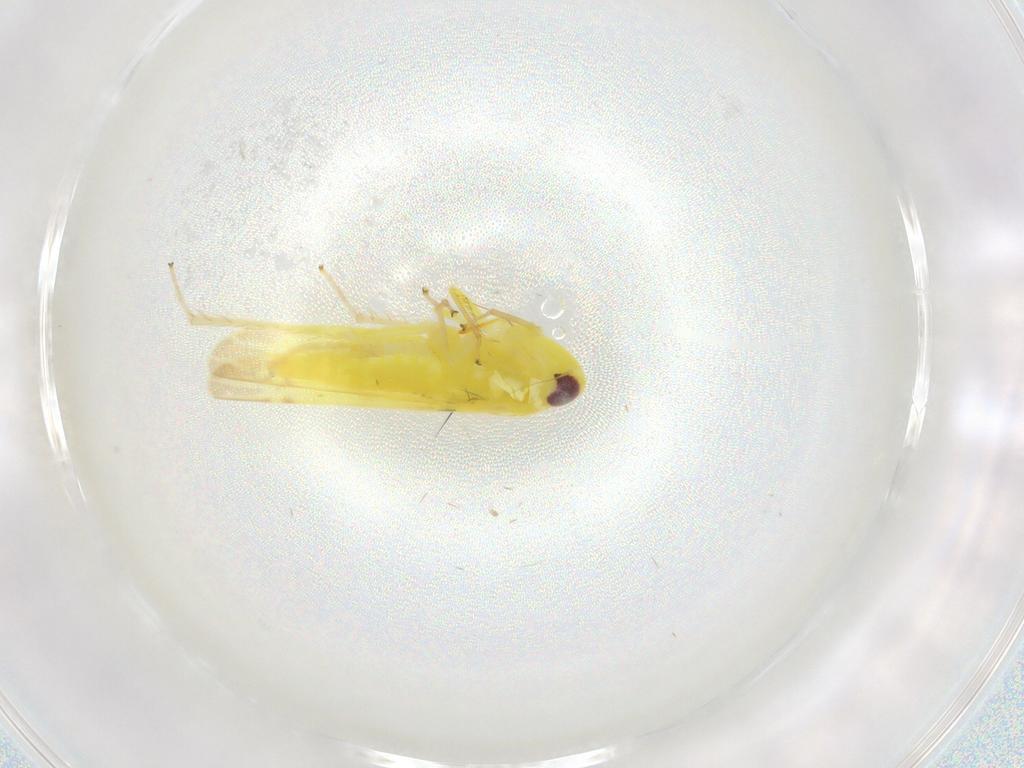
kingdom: Animalia
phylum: Arthropoda
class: Insecta
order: Hemiptera
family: Cicadellidae
